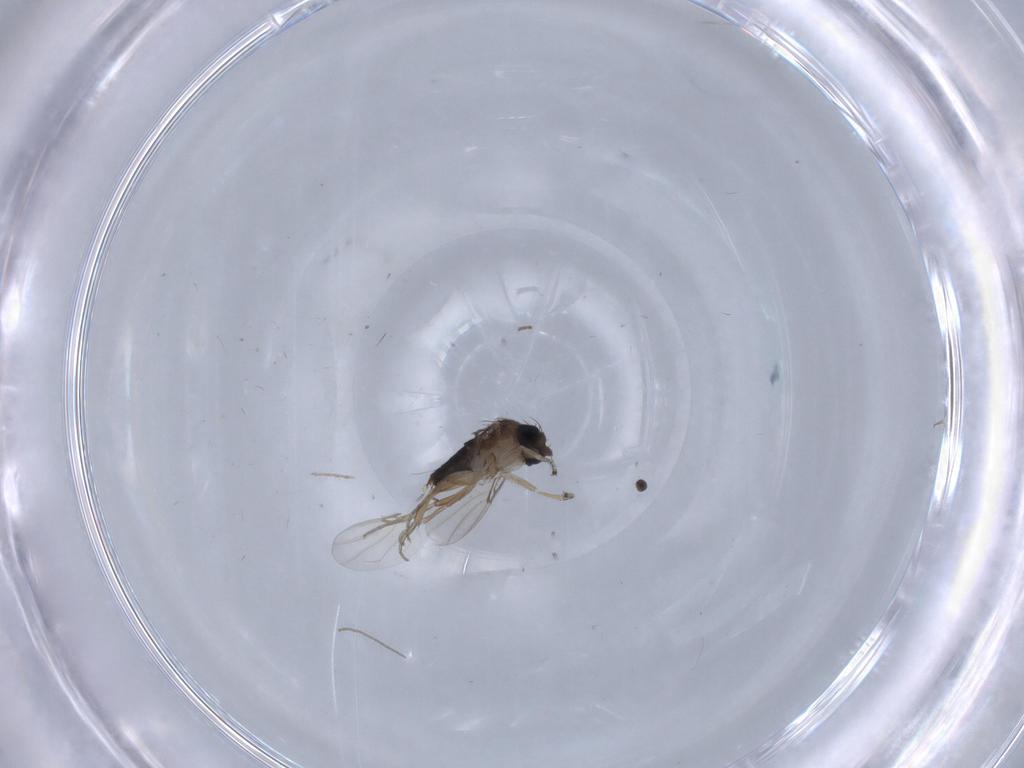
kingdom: Animalia
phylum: Arthropoda
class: Insecta
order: Diptera
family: Phoridae
